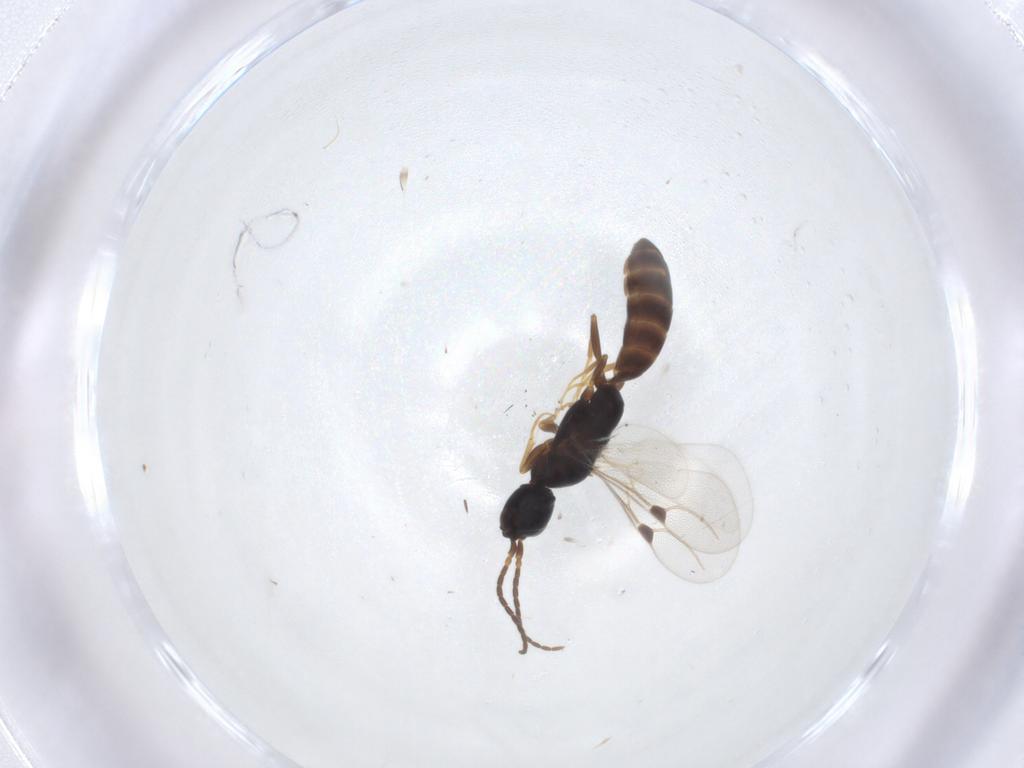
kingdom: Animalia
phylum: Arthropoda
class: Insecta
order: Hymenoptera
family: Bethylidae
